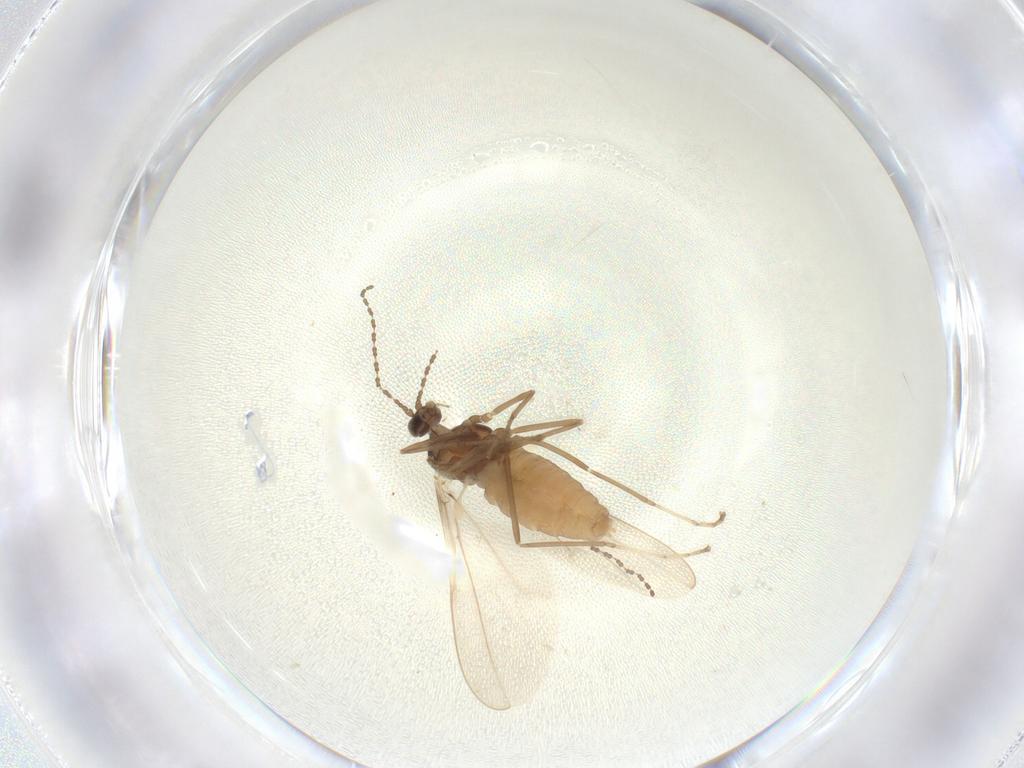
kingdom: Animalia
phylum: Arthropoda
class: Insecta
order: Diptera
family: Cecidomyiidae
